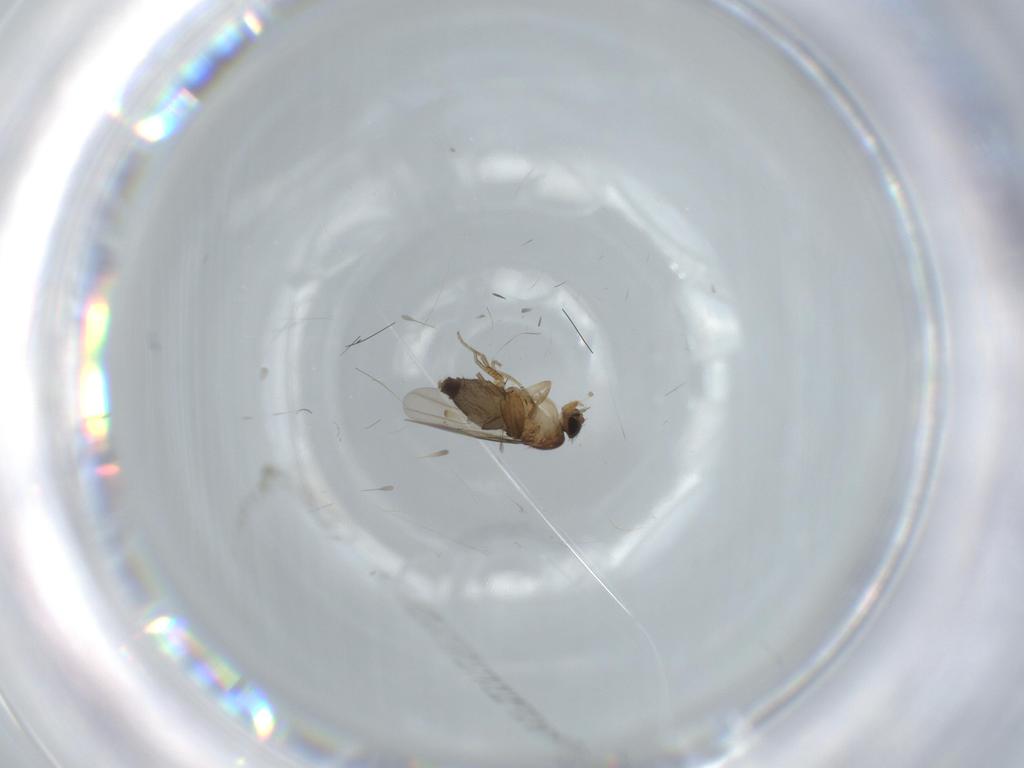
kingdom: Animalia
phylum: Arthropoda
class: Insecta
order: Diptera
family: Phoridae
